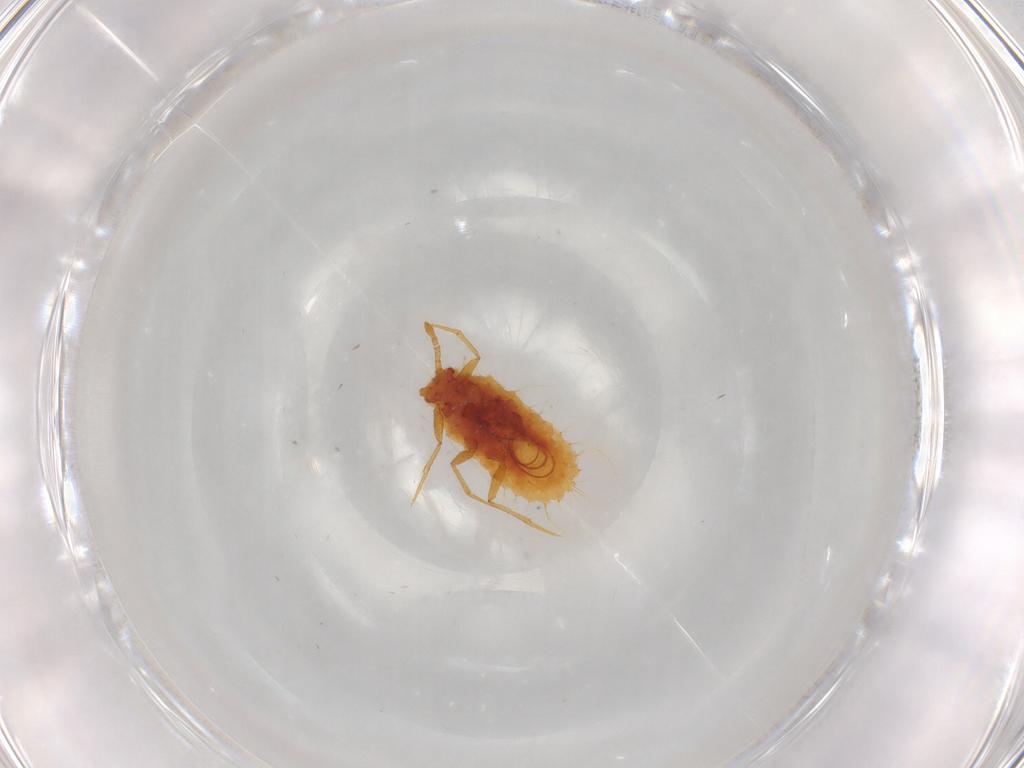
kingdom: Animalia
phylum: Arthropoda
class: Insecta
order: Hemiptera
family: Coccoidea_incertae_sedis
